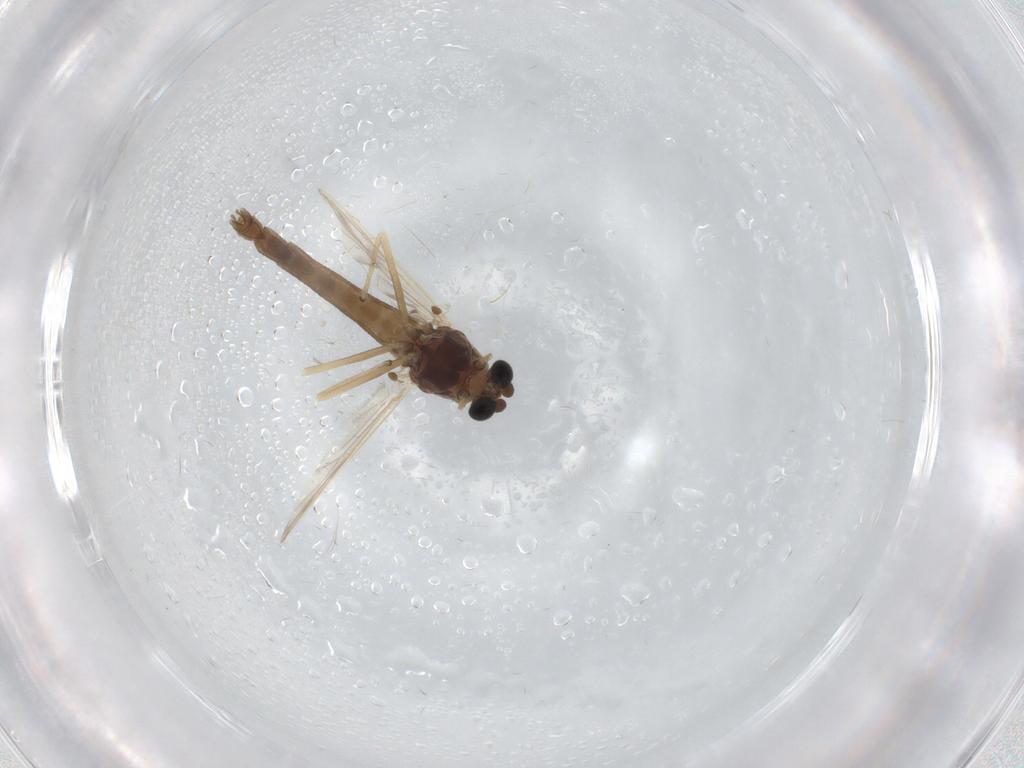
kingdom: Animalia
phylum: Arthropoda
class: Insecta
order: Diptera
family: Chironomidae
